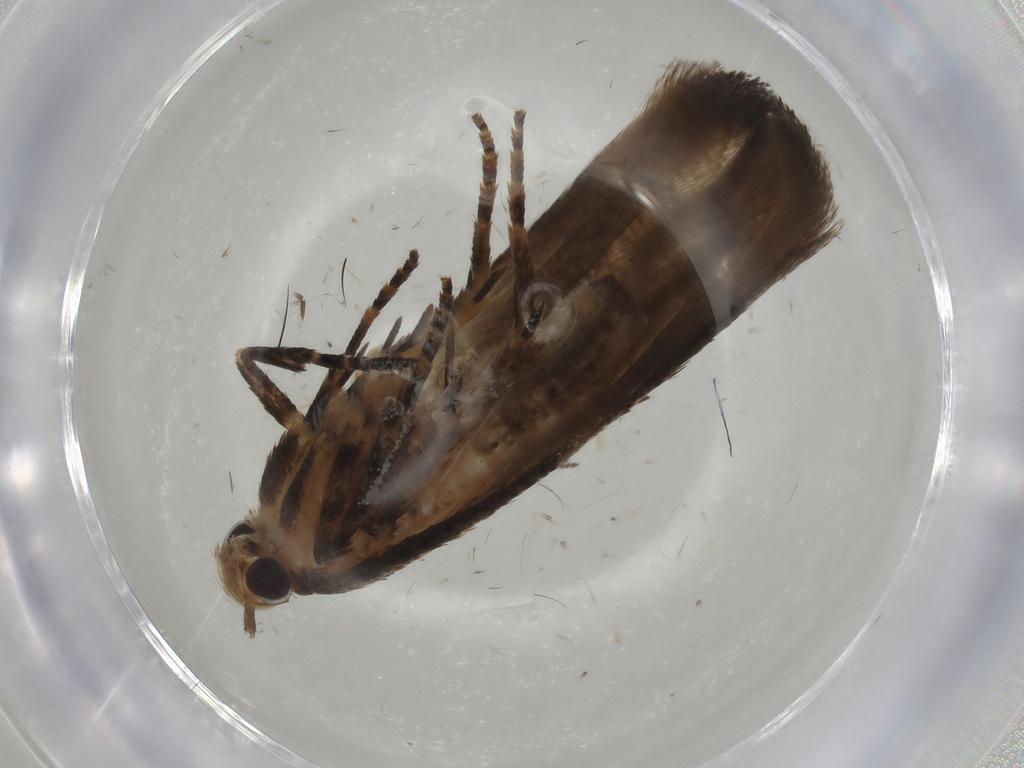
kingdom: Animalia
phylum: Arthropoda
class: Insecta
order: Lepidoptera
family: Gelechiidae
